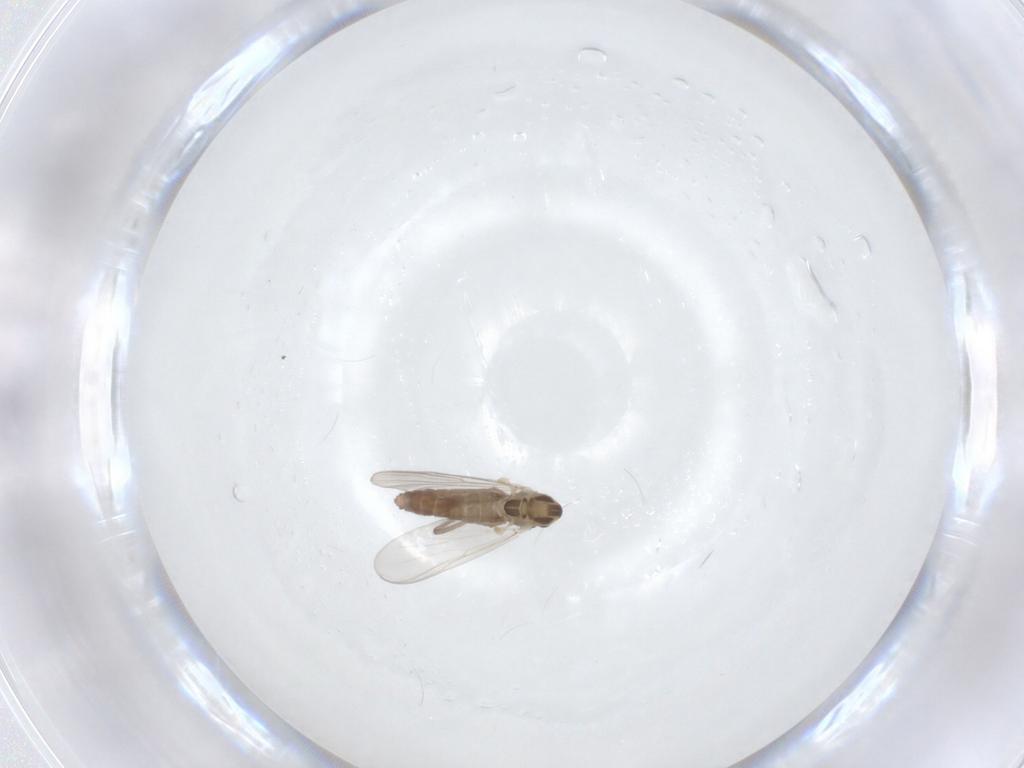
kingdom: Animalia
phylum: Arthropoda
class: Insecta
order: Diptera
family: Chironomidae
